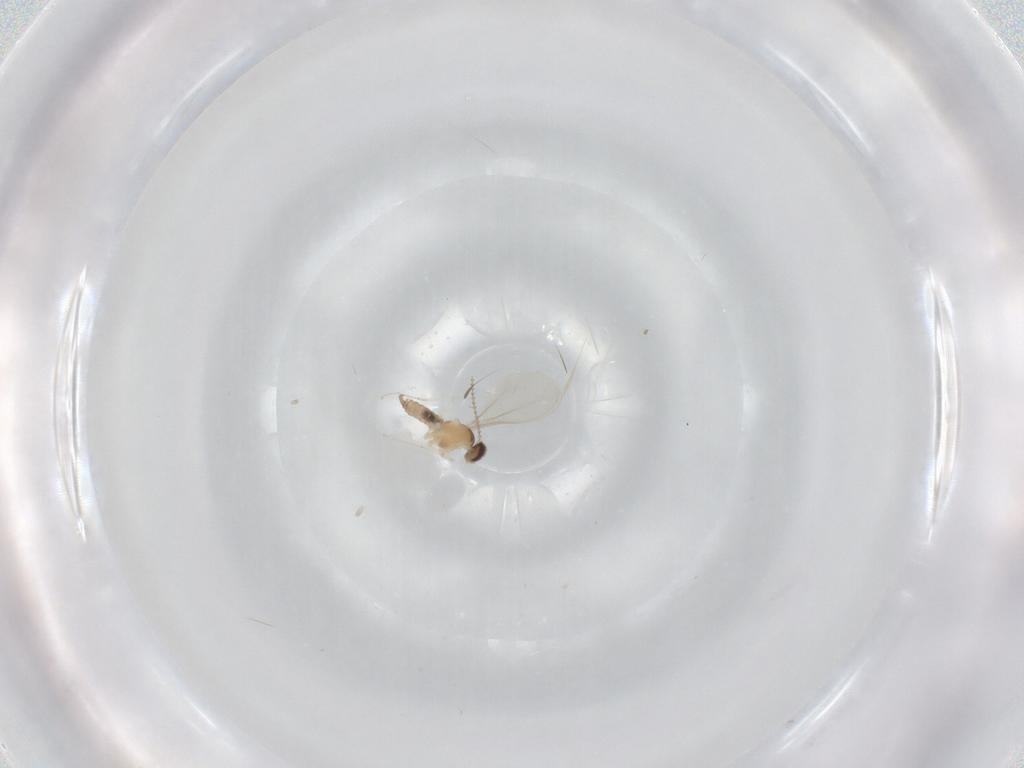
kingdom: Animalia
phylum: Arthropoda
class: Insecta
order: Diptera
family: Cecidomyiidae
